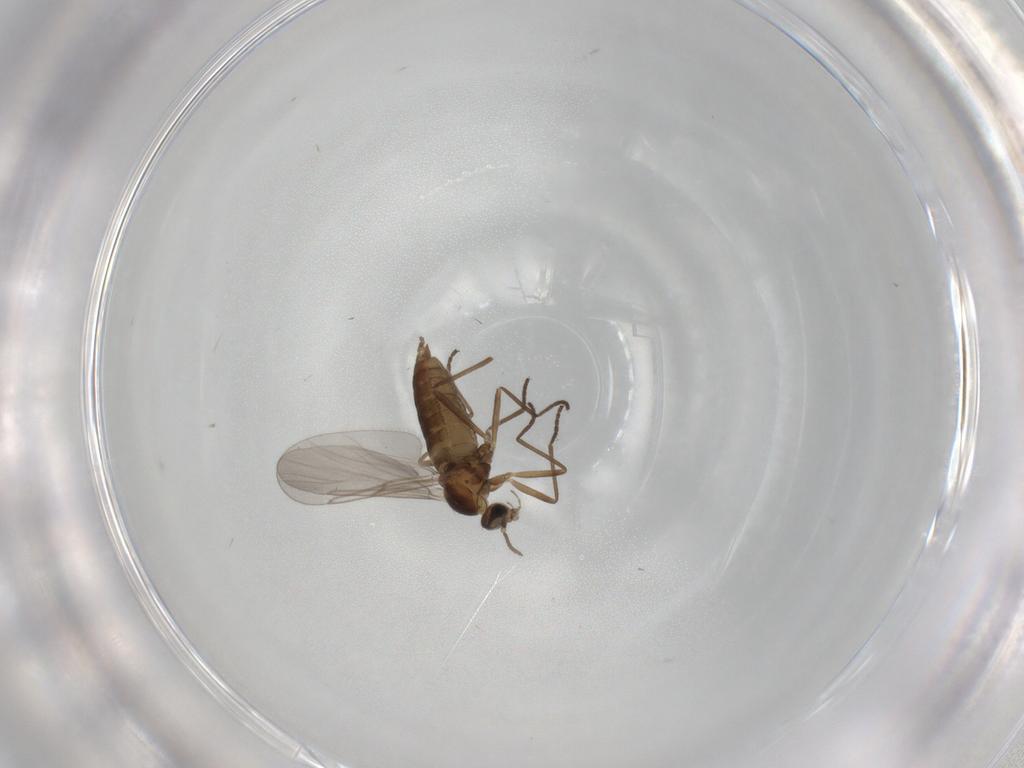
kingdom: Animalia
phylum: Arthropoda
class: Insecta
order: Diptera
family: Cecidomyiidae
